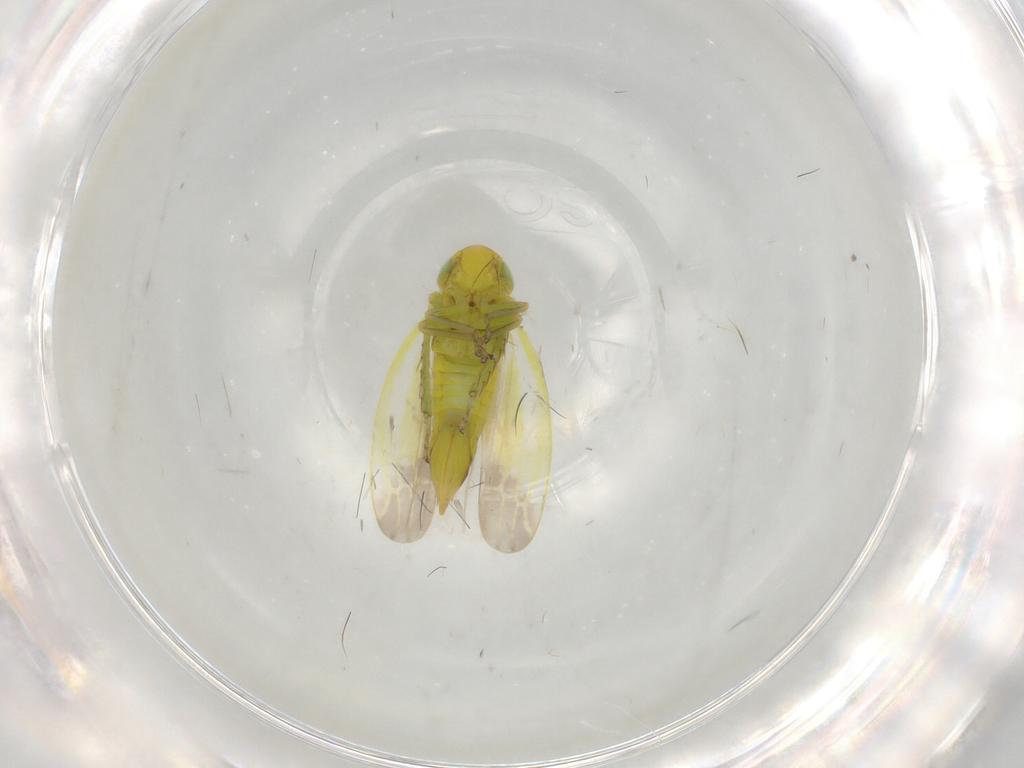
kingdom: Animalia
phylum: Arthropoda
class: Insecta
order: Hemiptera
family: Cicadellidae
